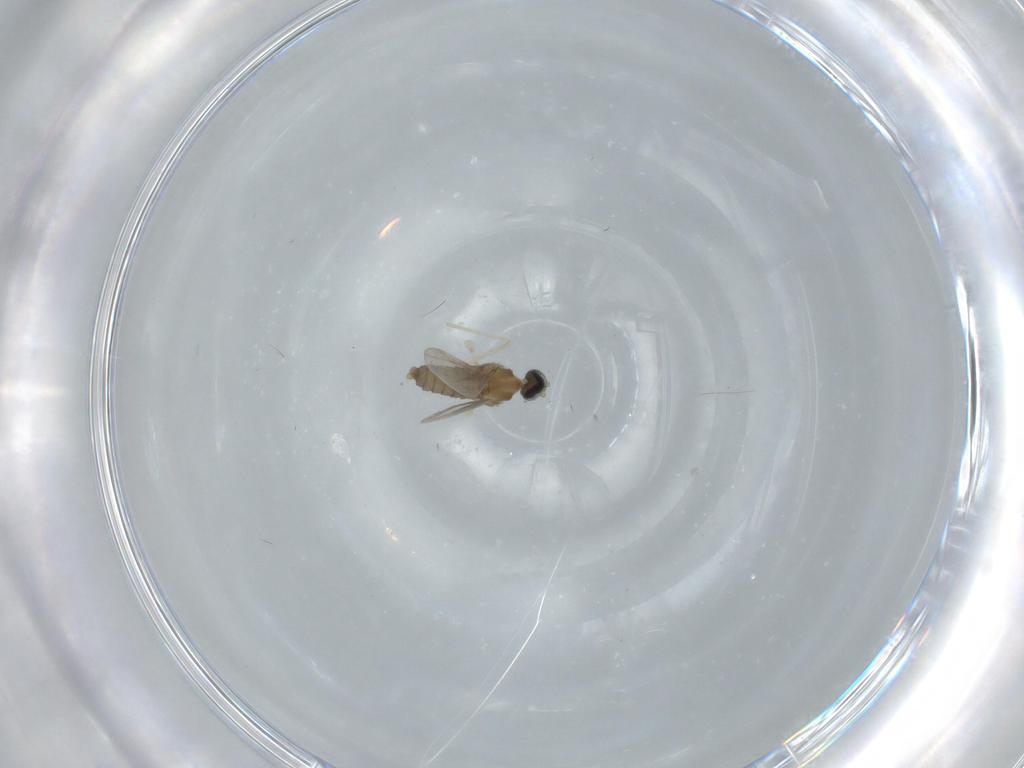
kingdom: Animalia
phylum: Arthropoda
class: Insecta
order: Diptera
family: Cecidomyiidae
